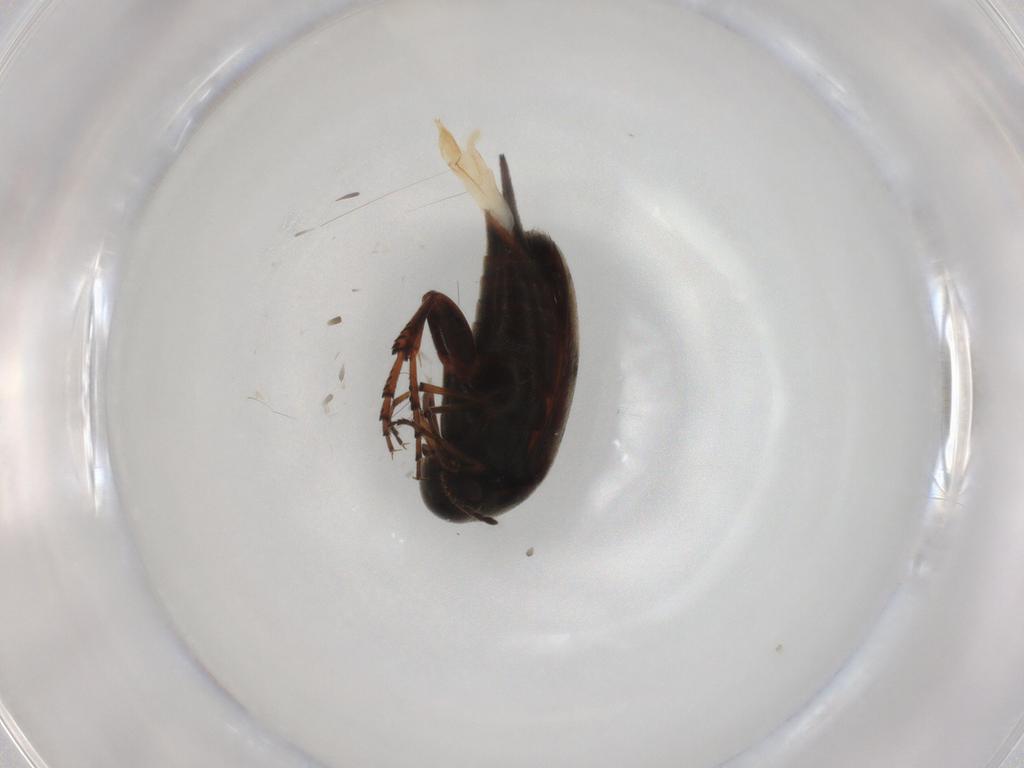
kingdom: Animalia
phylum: Arthropoda
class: Insecta
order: Coleoptera
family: Mordellidae
